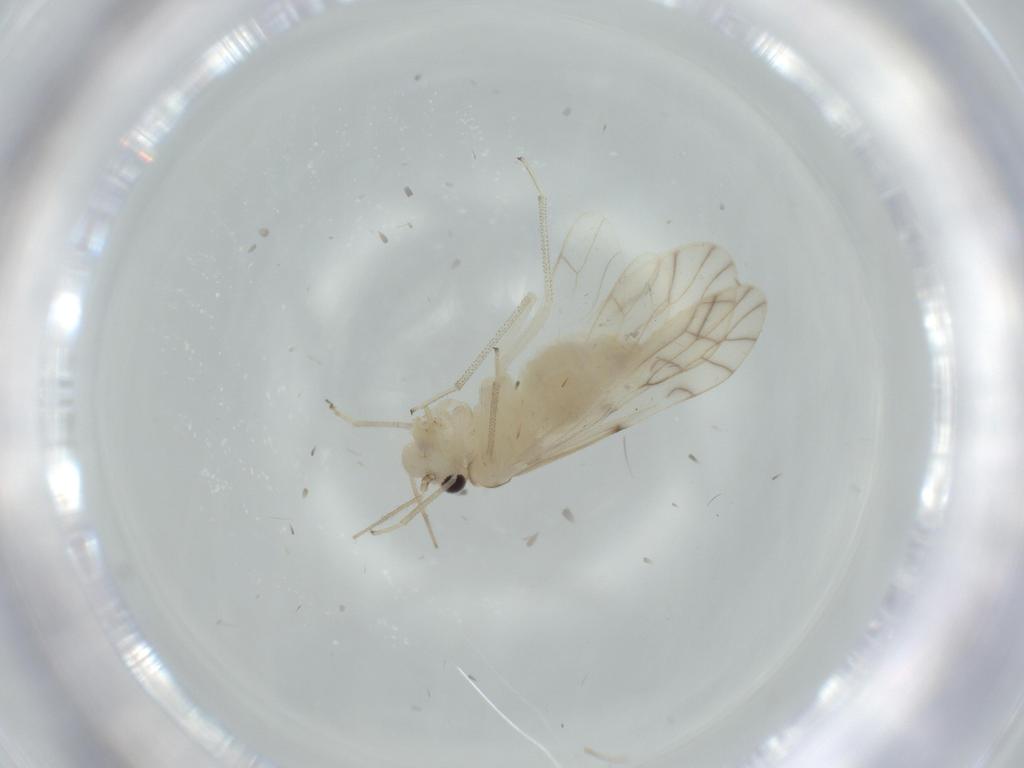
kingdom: Animalia
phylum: Arthropoda
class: Insecta
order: Psocodea
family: Caeciliusidae
